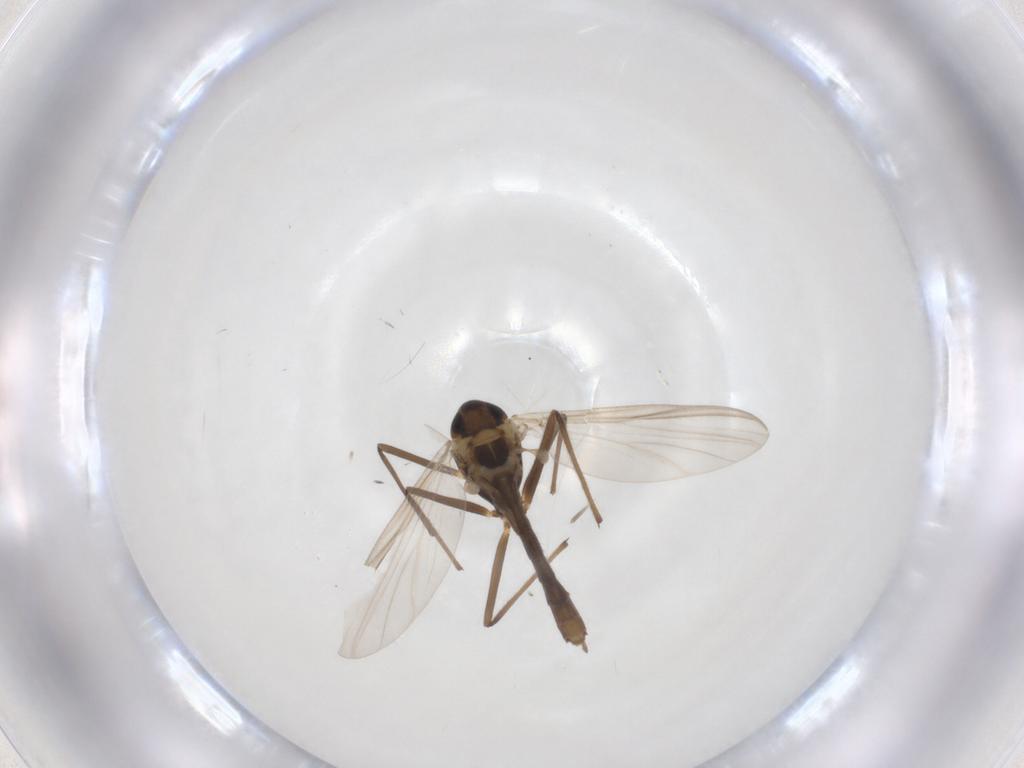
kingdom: Animalia
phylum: Arthropoda
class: Insecta
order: Diptera
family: Chironomidae
